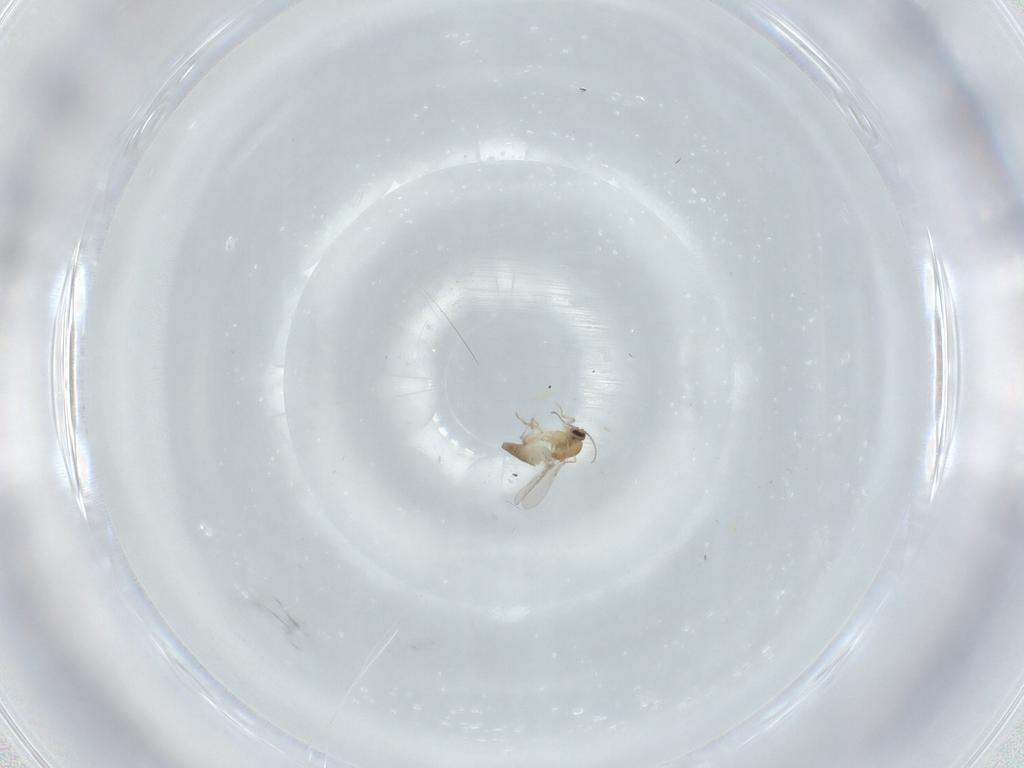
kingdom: Animalia
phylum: Arthropoda
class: Insecta
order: Diptera
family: Ceratopogonidae
